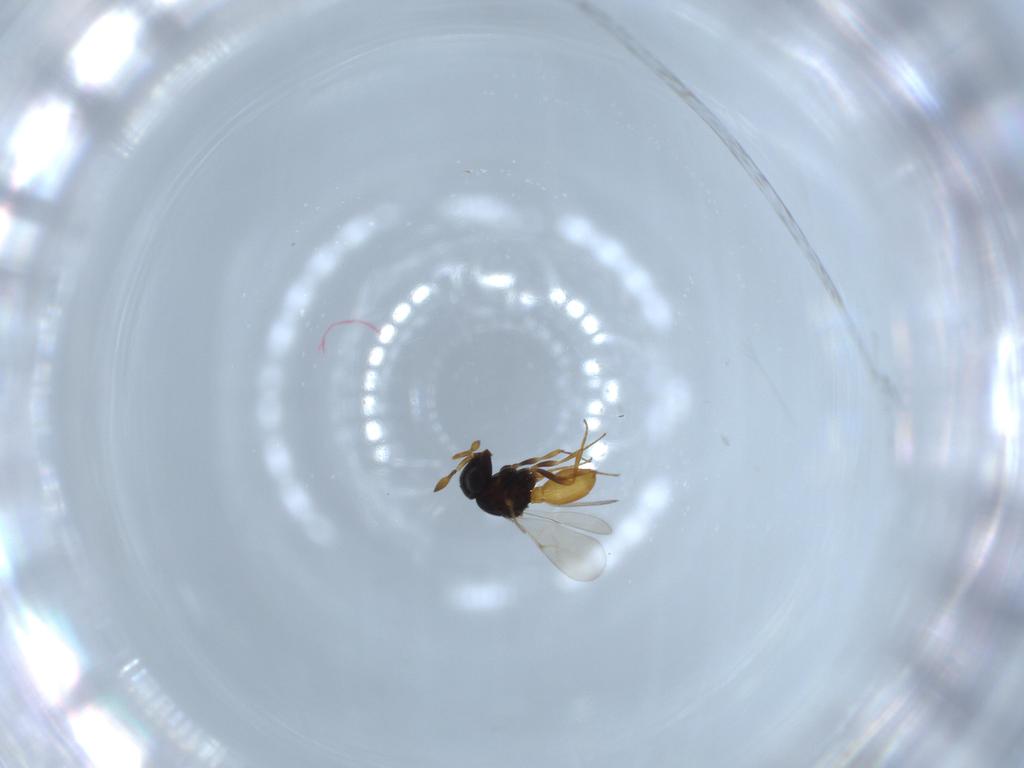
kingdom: Animalia
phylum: Arthropoda
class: Insecta
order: Hymenoptera
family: Scelionidae
